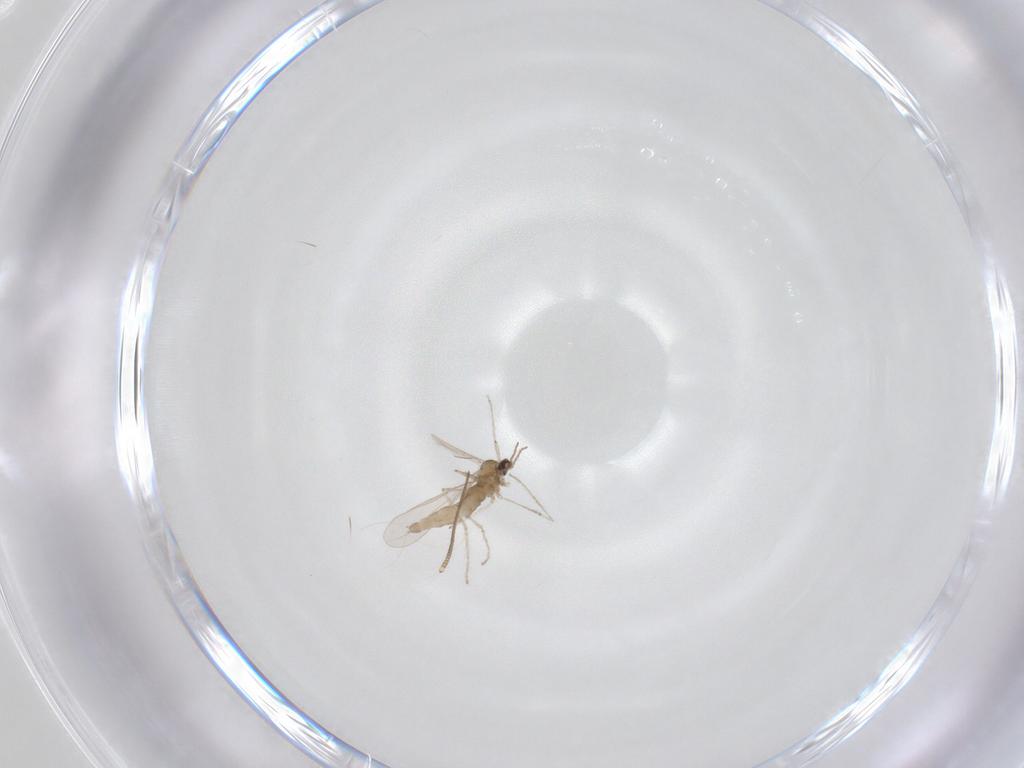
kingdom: Animalia
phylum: Arthropoda
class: Insecta
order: Diptera
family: Cecidomyiidae
